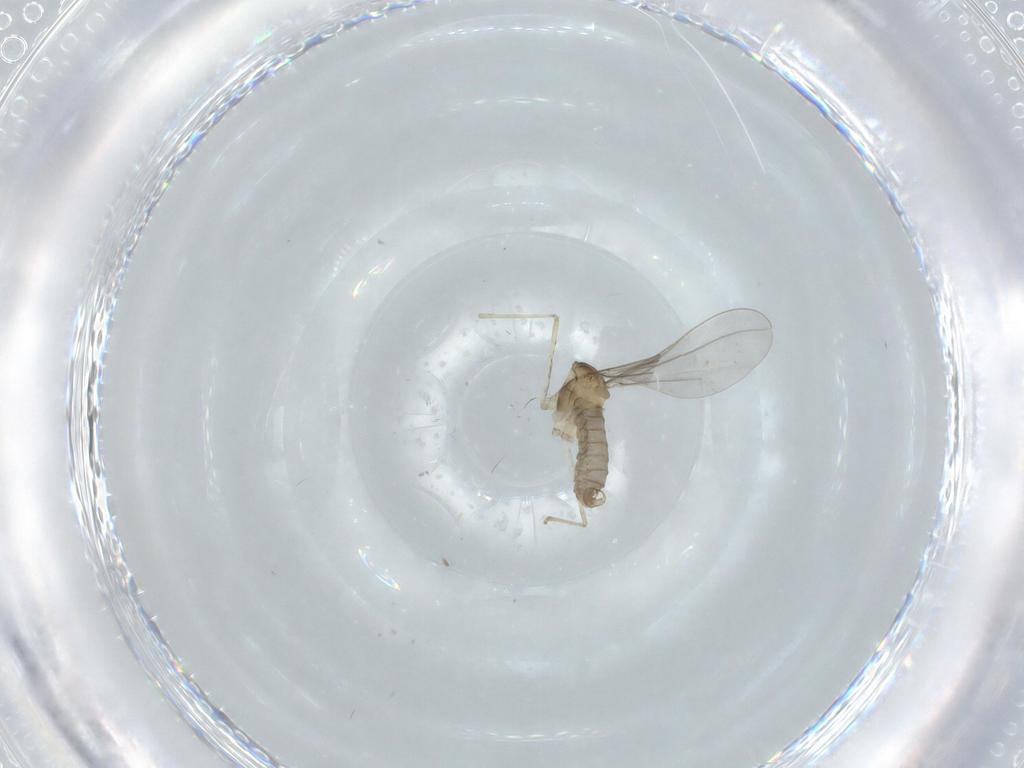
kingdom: Animalia
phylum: Arthropoda
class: Insecta
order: Diptera
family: Cecidomyiidae
